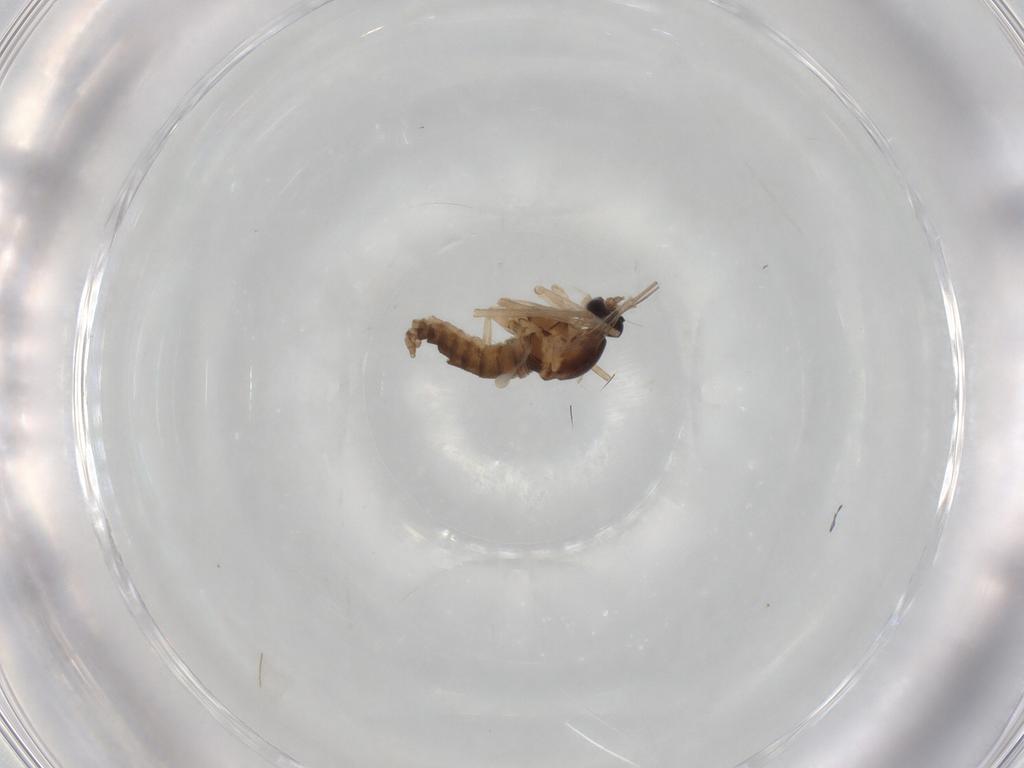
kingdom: Animalia
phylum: Arthropoda
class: Insecta
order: Diptera
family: Cecidomyiidae
